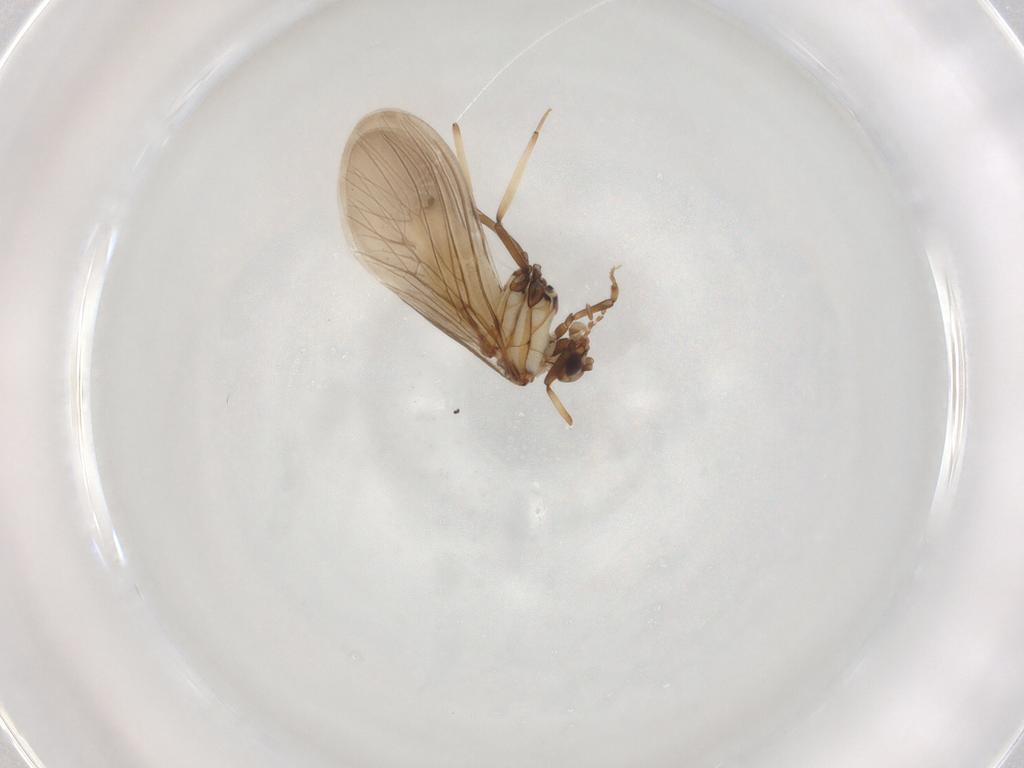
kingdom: Animalia
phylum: Arthropoda
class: Insecta
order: Neuroptera
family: Coniopterygidae
